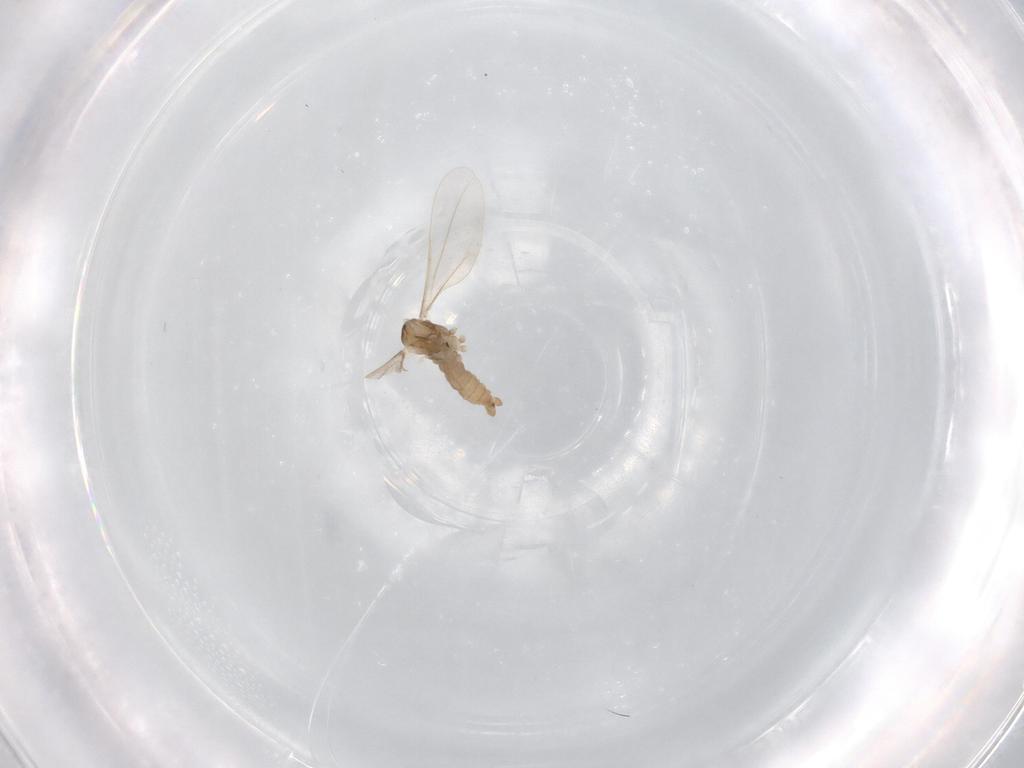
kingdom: Animalia
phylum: Arthropoda
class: Insecta
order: Diptera
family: Cecidomyiidae
